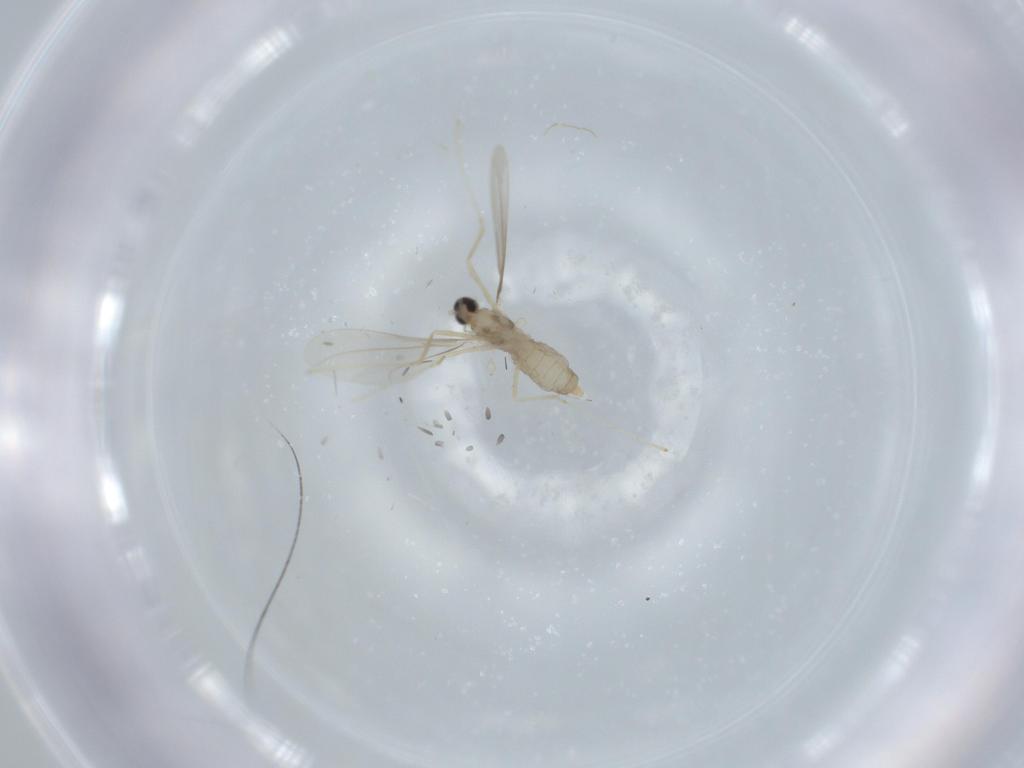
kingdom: Animalia
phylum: Arthropoda
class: Insecta
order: Diptera
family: Cecidomyiidae
